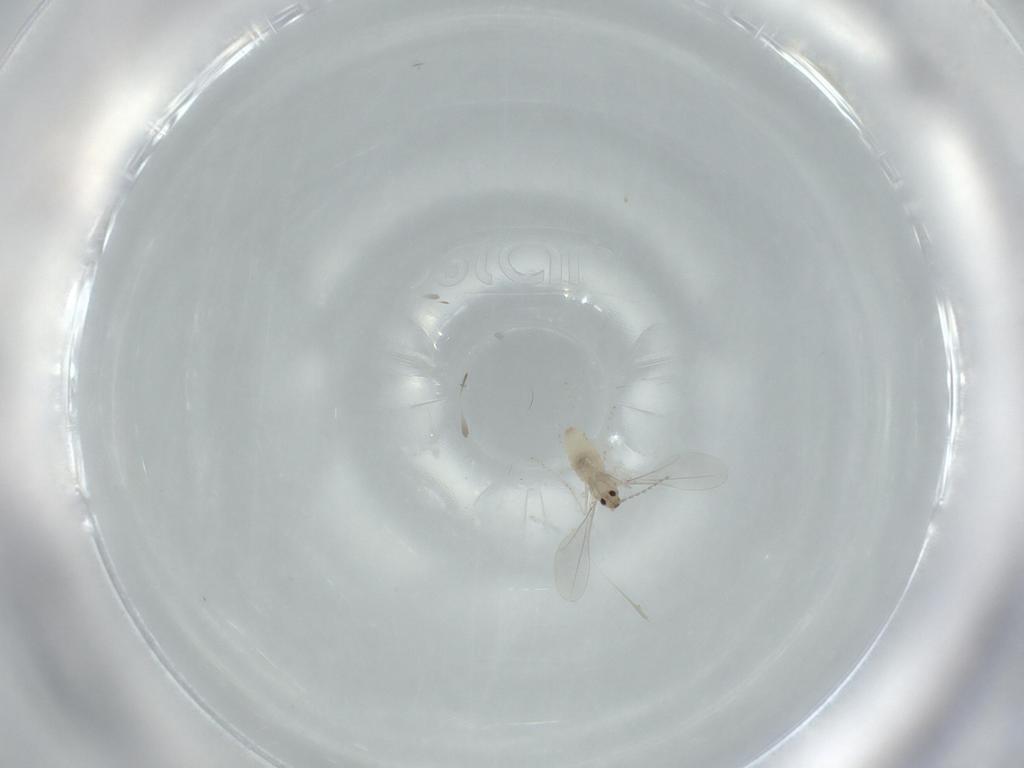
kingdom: Animalia
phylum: Arthropoda
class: Insecta
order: Diptera
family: Cecidomyiidae
